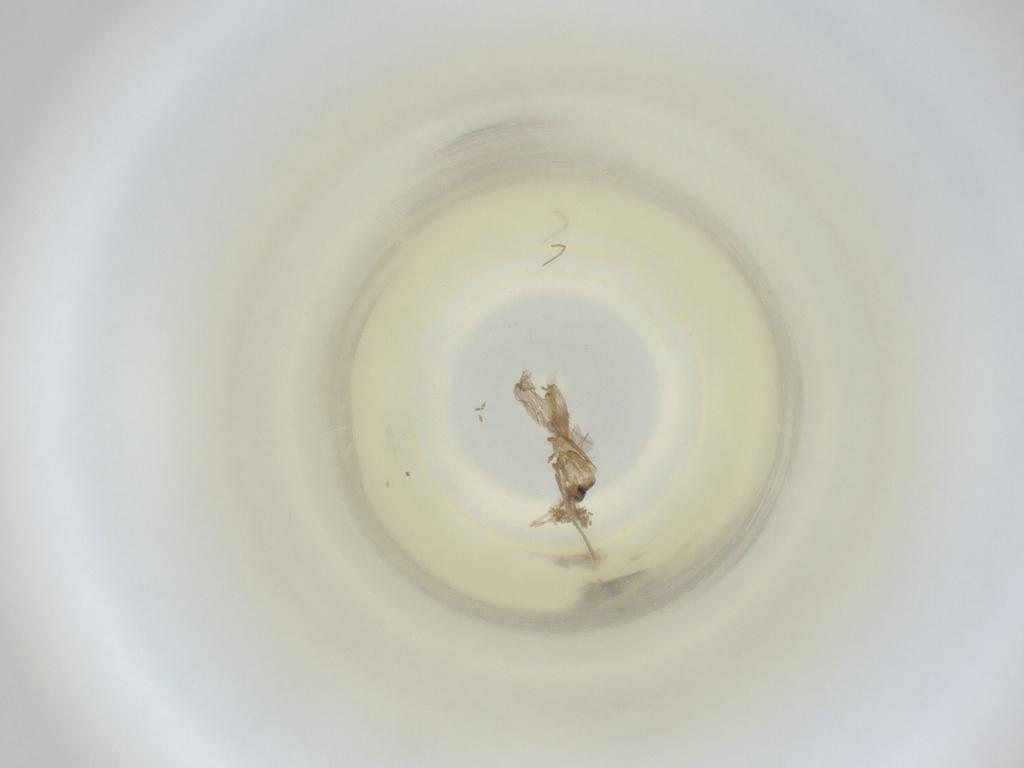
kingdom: Animalia
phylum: Arthropoda
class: Insecta
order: Diptera
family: Cecidomyiidae
